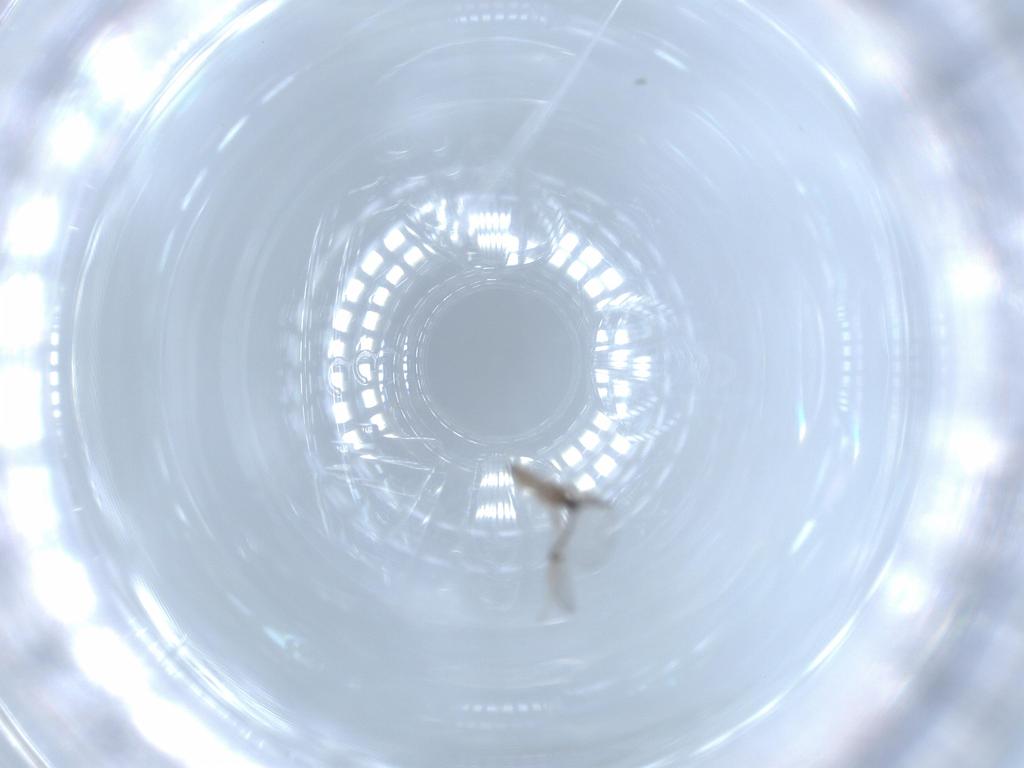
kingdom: Animalia
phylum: Arthropoda
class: Insecta
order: Diptera
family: Cecidomyiidae
